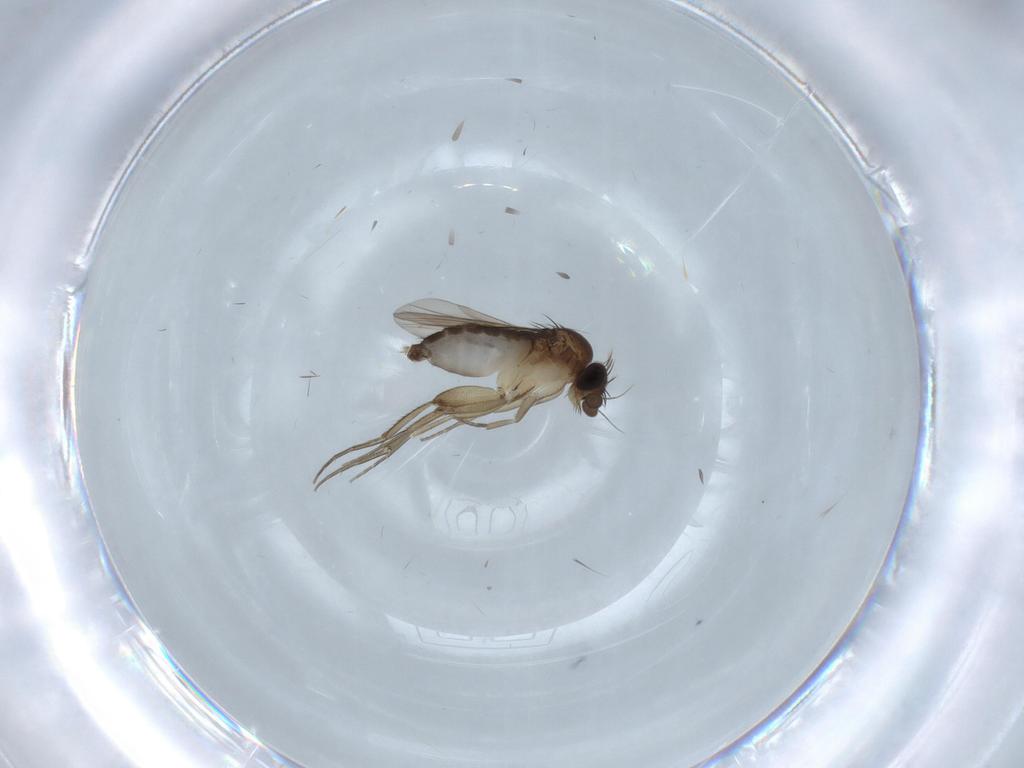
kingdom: Animalia
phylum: Arthropoda
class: Insecta
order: Diptera
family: Phoridae
